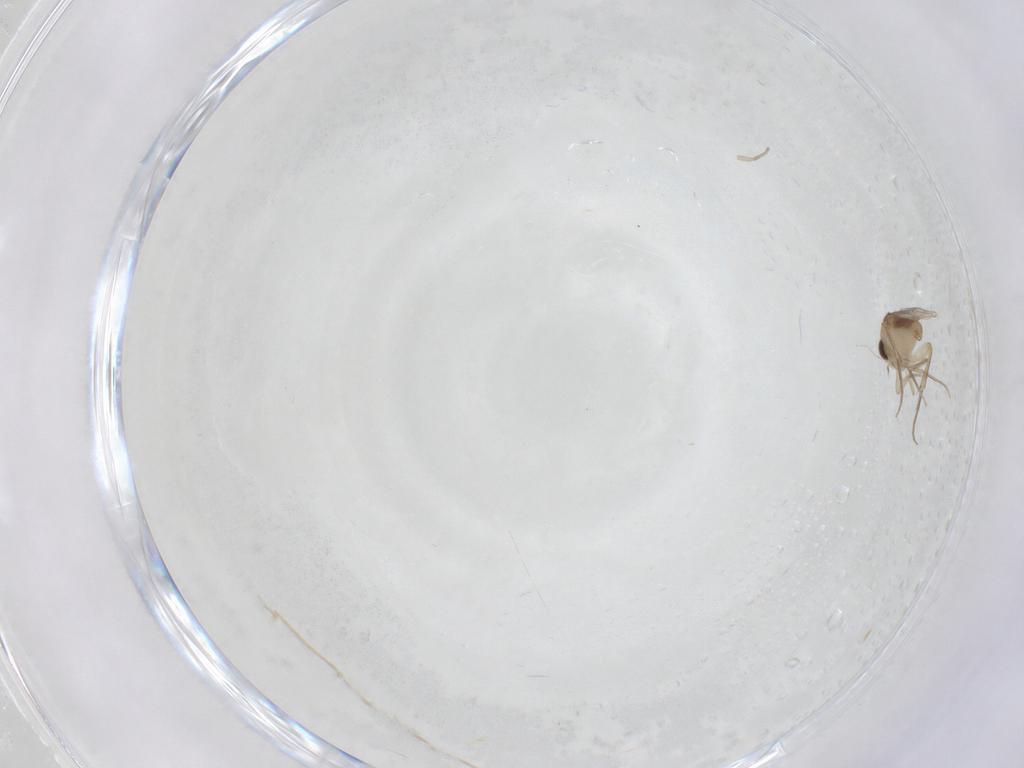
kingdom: Animalia
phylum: Arthropoda
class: Insecta
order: Diptera
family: Phoridae
